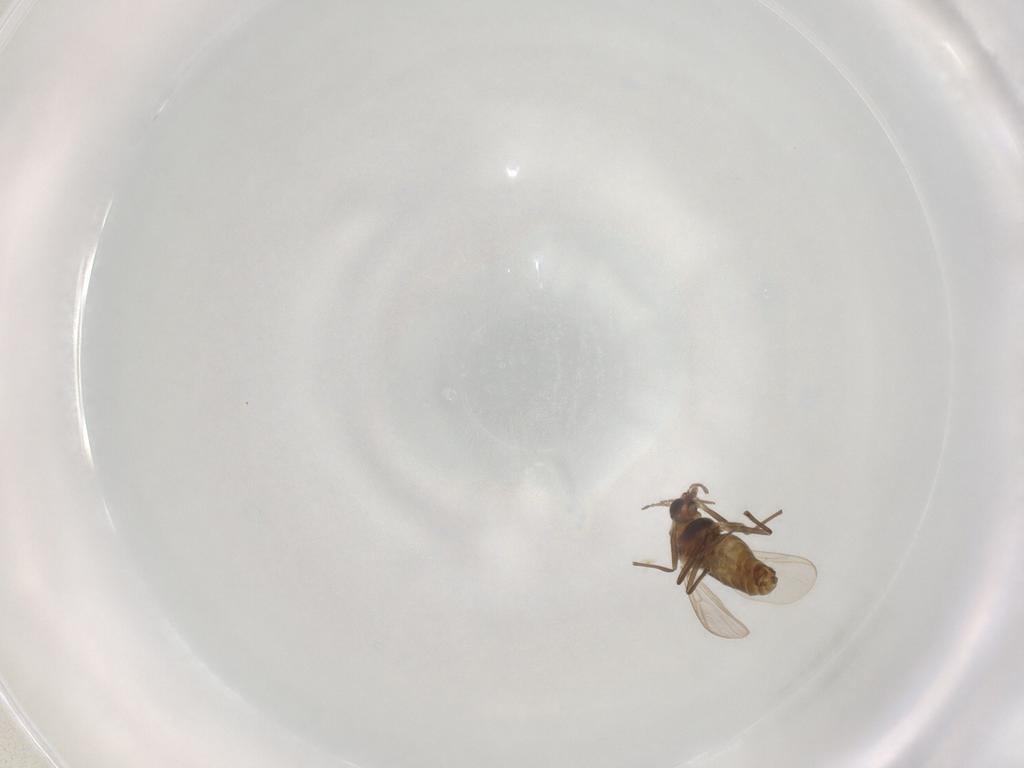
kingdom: Animalia
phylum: Arthropoda
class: Insecta
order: Diptera
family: Chironomidae
